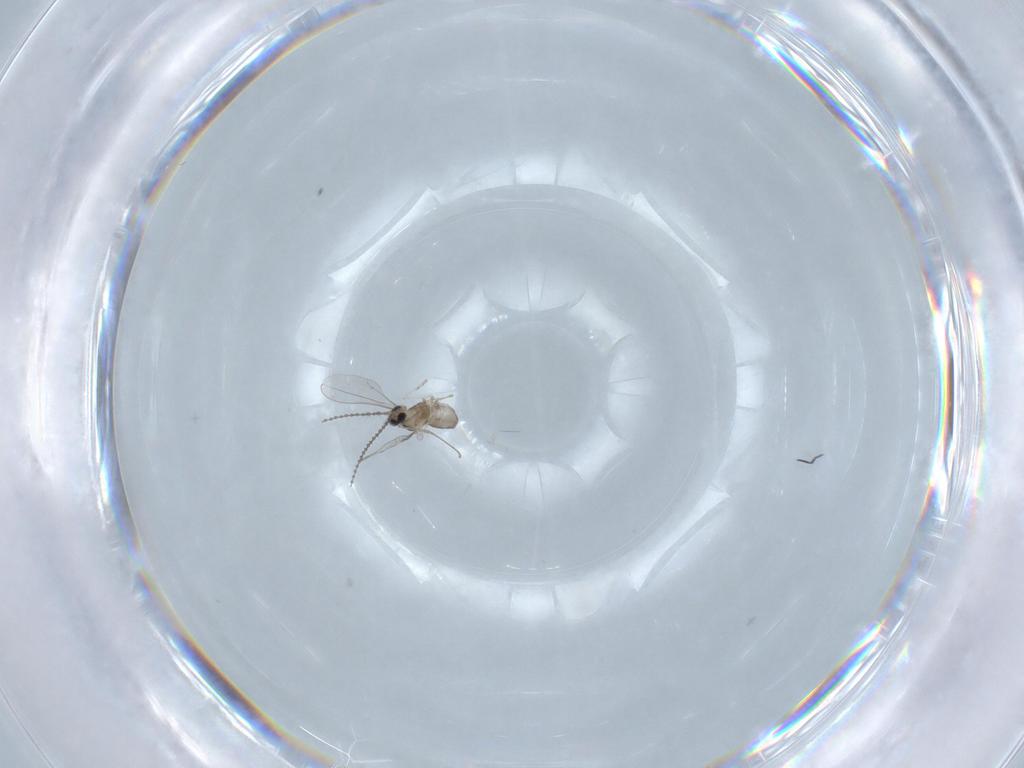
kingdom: Animalia
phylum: Arthropoda
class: Insecta
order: Diptera
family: Cecidomyiidae
